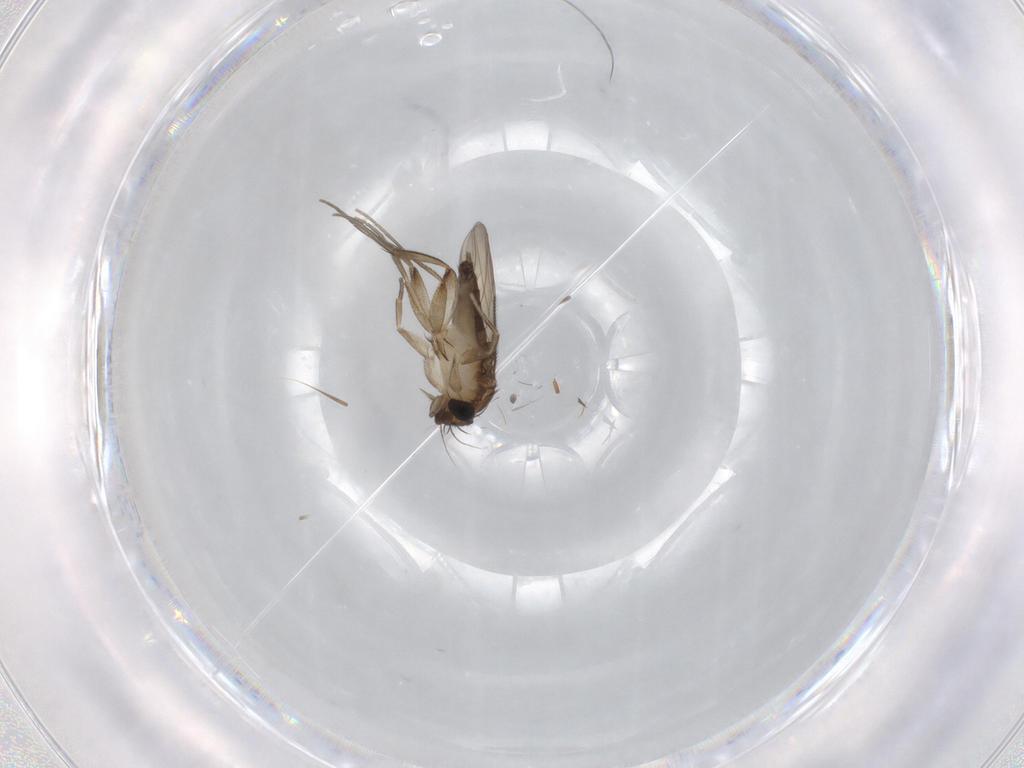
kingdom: Animalia
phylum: Arthropoda
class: Insecta
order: Diptera
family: Phoridae
